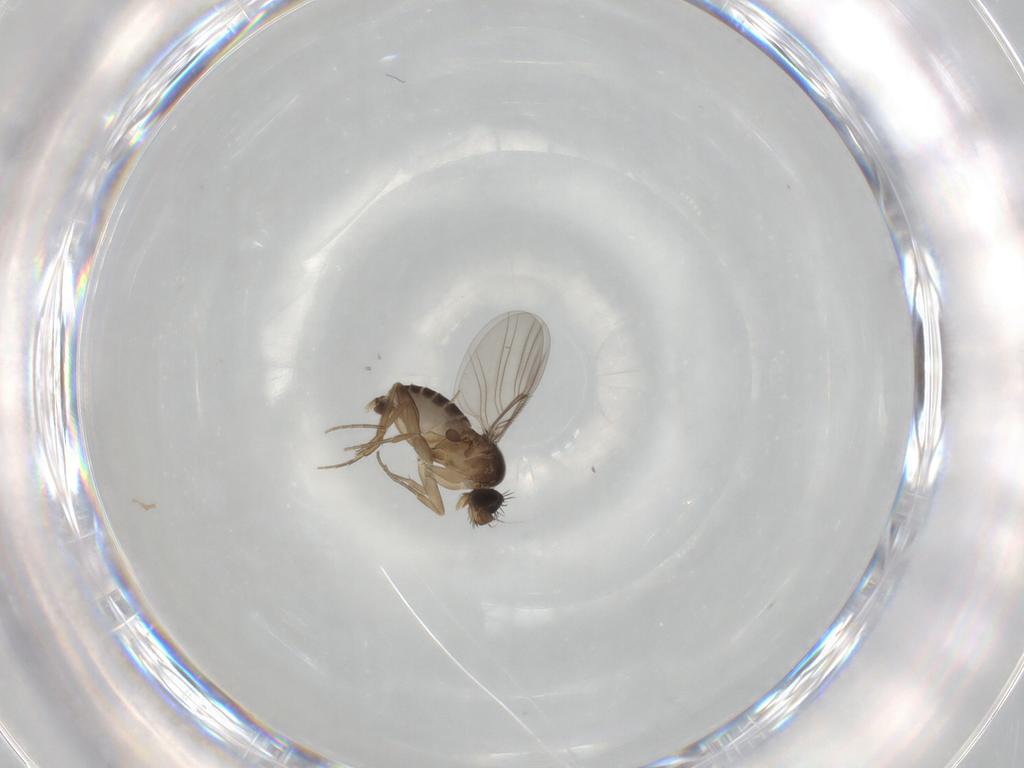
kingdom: Animalia
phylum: Arthropoda
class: Insecta
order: Diptera
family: Phoridae
